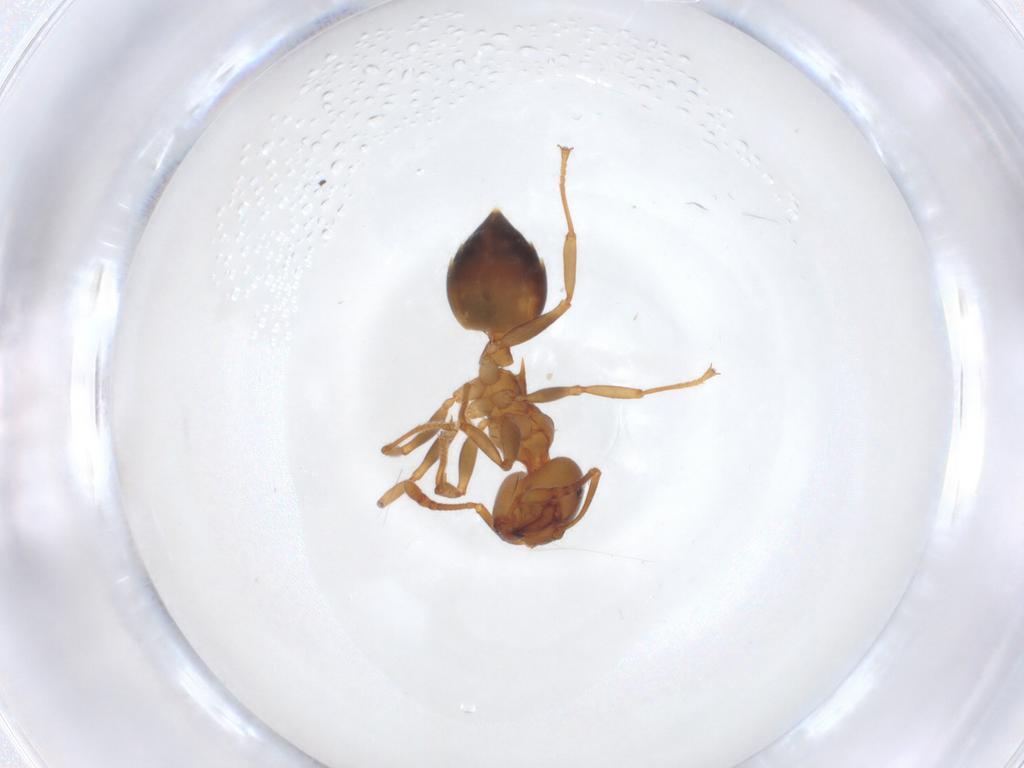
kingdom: Animalia
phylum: Arthropoda
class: Insecta
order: Hymenoptera
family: Formicidae
